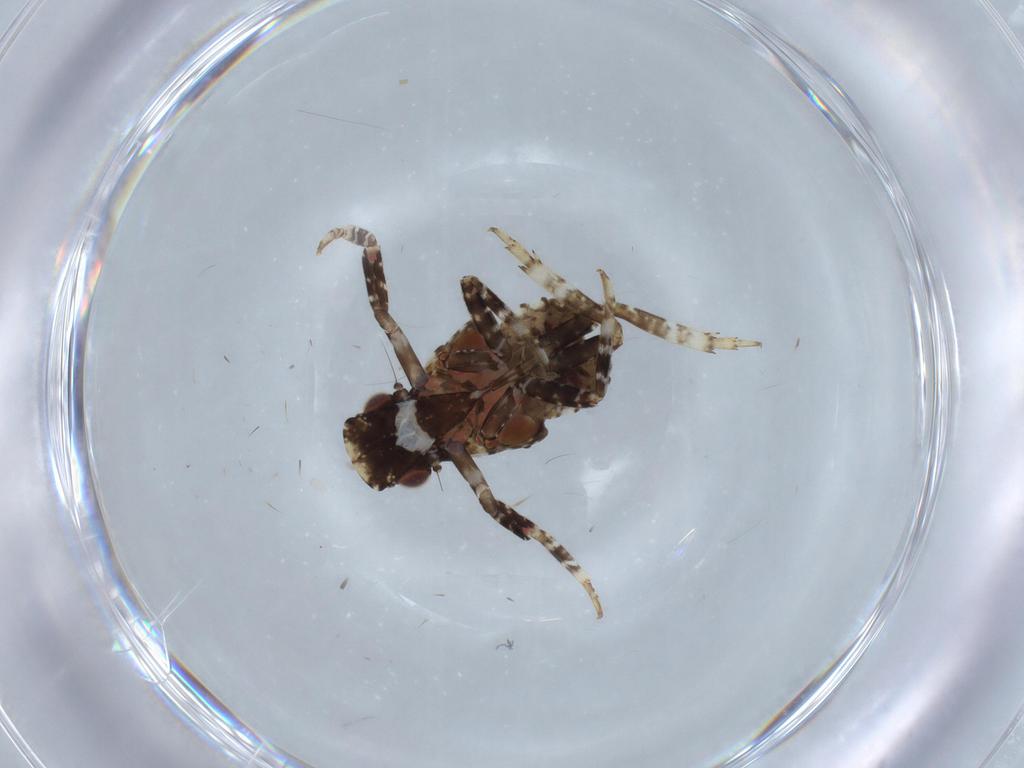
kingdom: Animalia
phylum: Arthropoda
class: Insecta
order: Hemiptera
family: Fulgoridae
